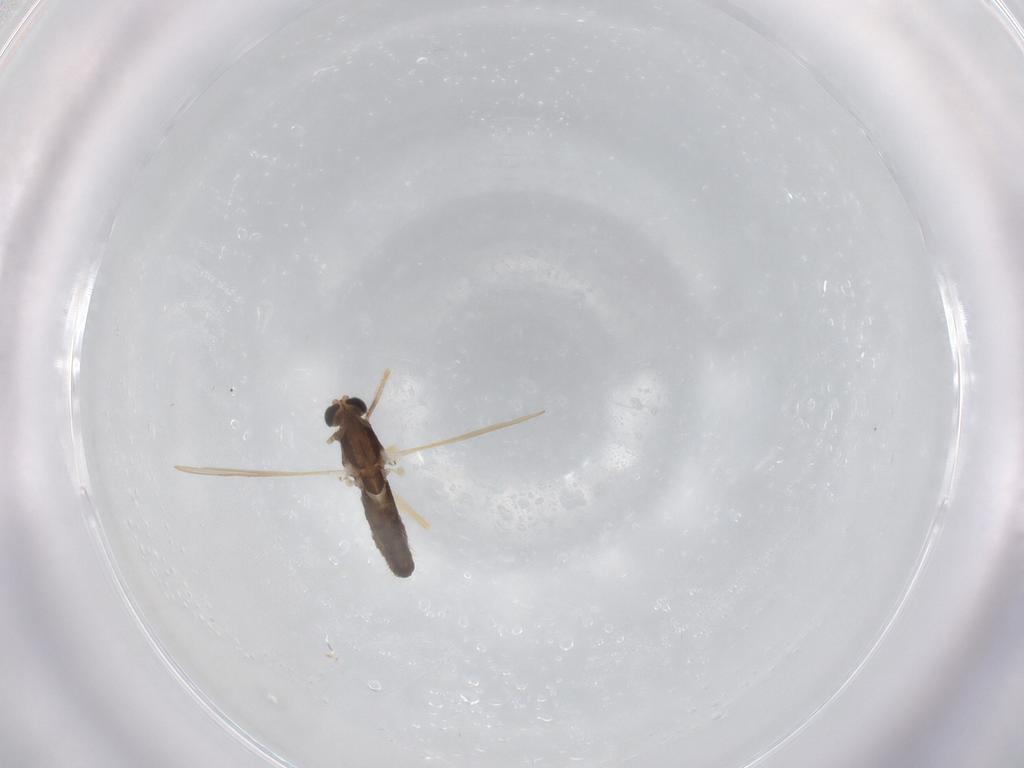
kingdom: Animalia
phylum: Arthropoda
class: Insecta
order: Diptera
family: Chironomidae
